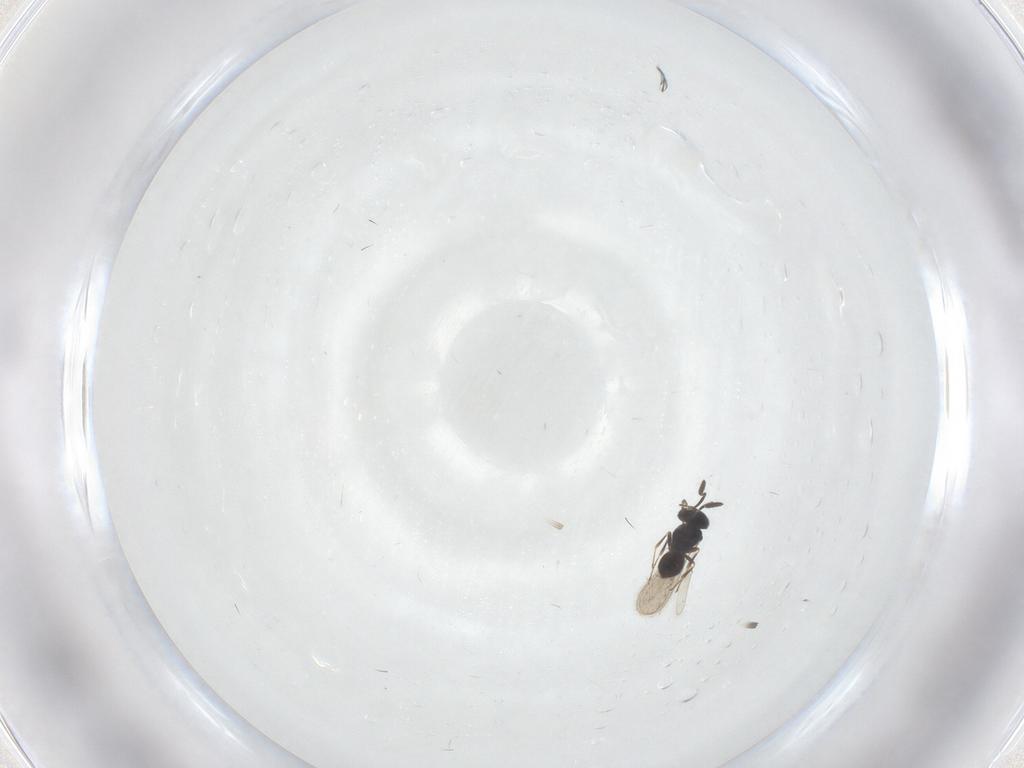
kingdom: Animalia
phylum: Arthropoda
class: Insecta
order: Hymenoptera
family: Scelionidae
